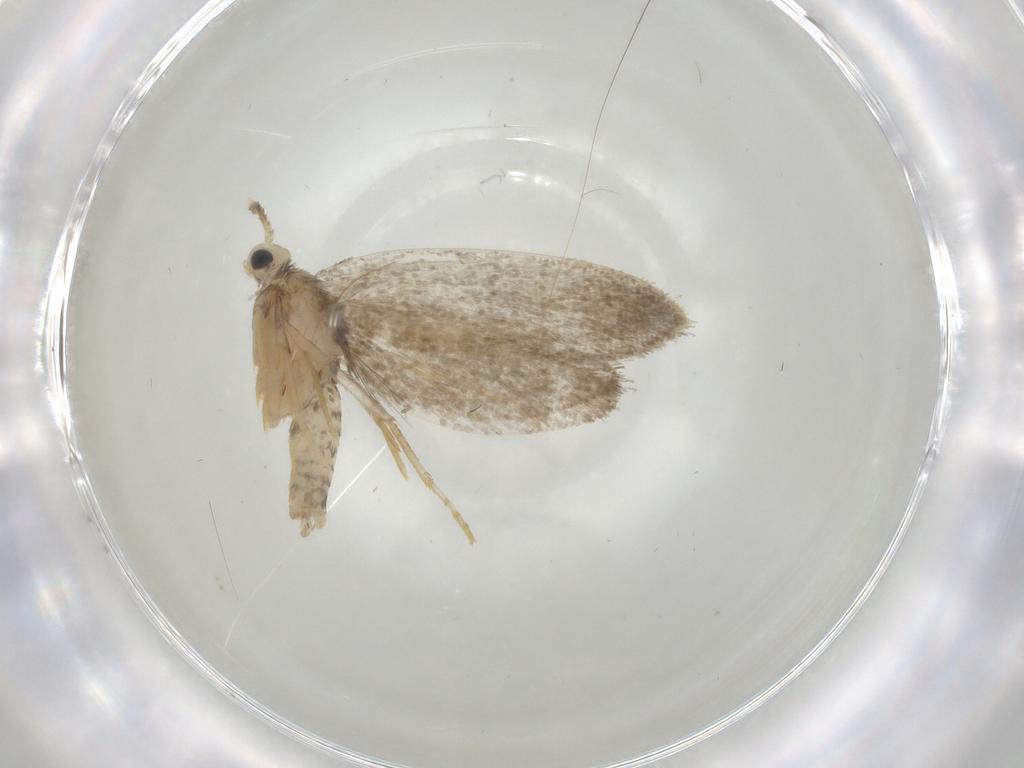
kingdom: Animalia
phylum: Arthropoda
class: Insecta
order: Lepidoptera
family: Psychidae
